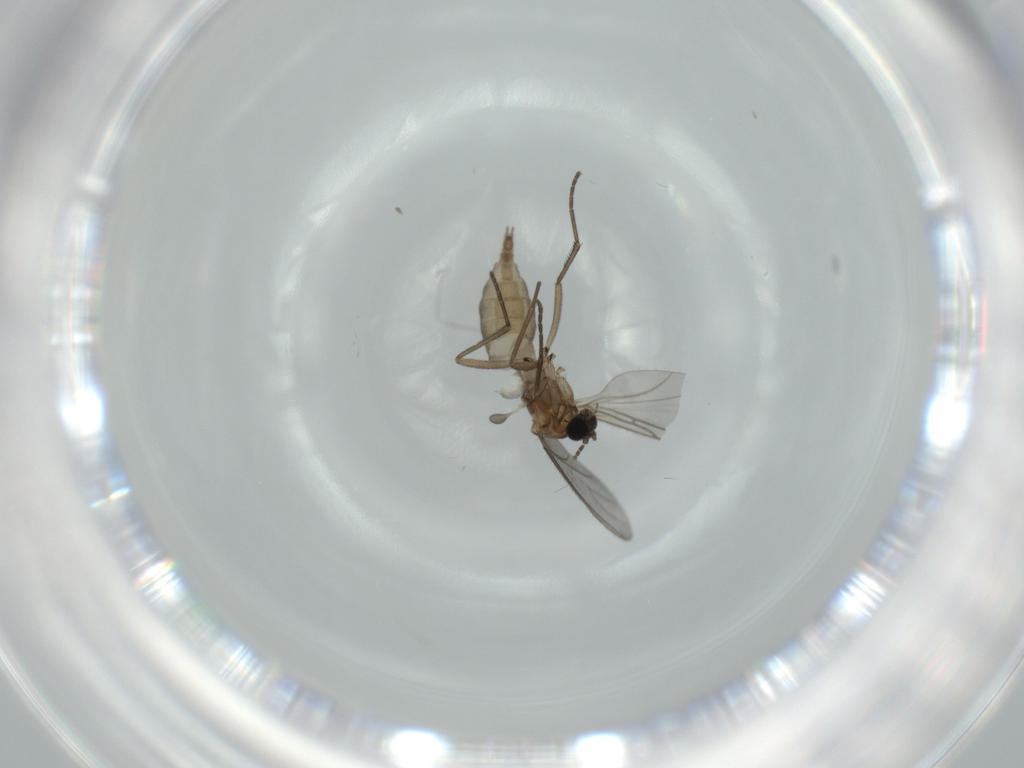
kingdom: Animalia
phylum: Arthropoda
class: Insecta
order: Diptera
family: Sciaridae
